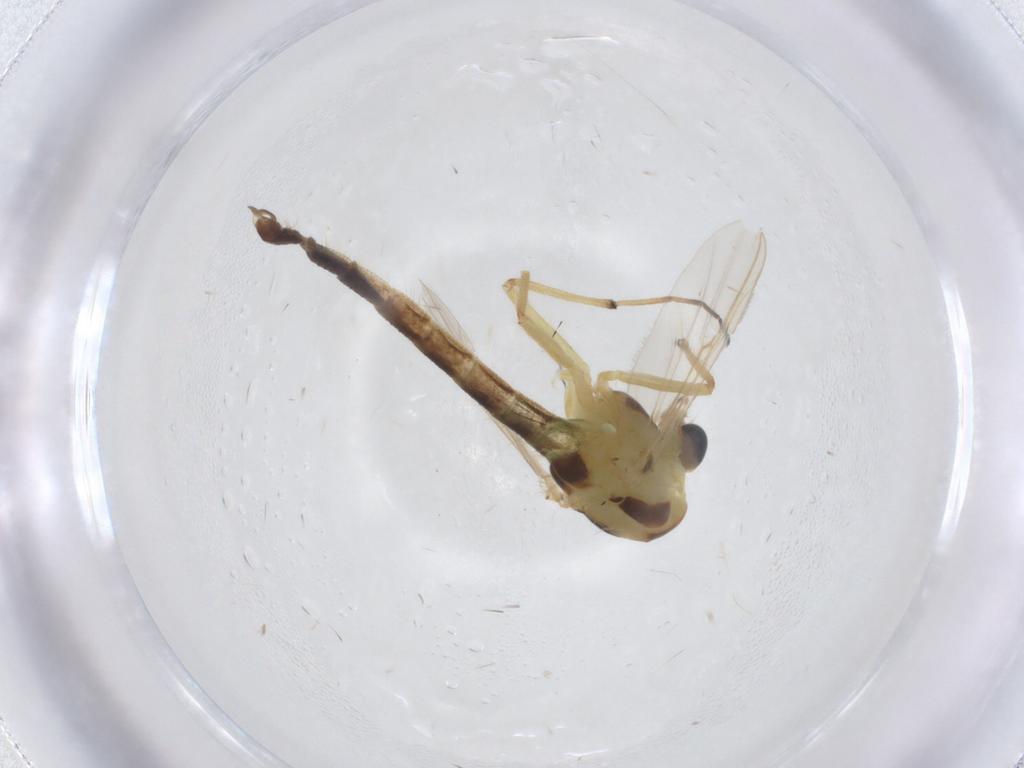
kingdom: Animalia
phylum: Arthropoda
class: Insecta
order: Diptera
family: Chironomidae
